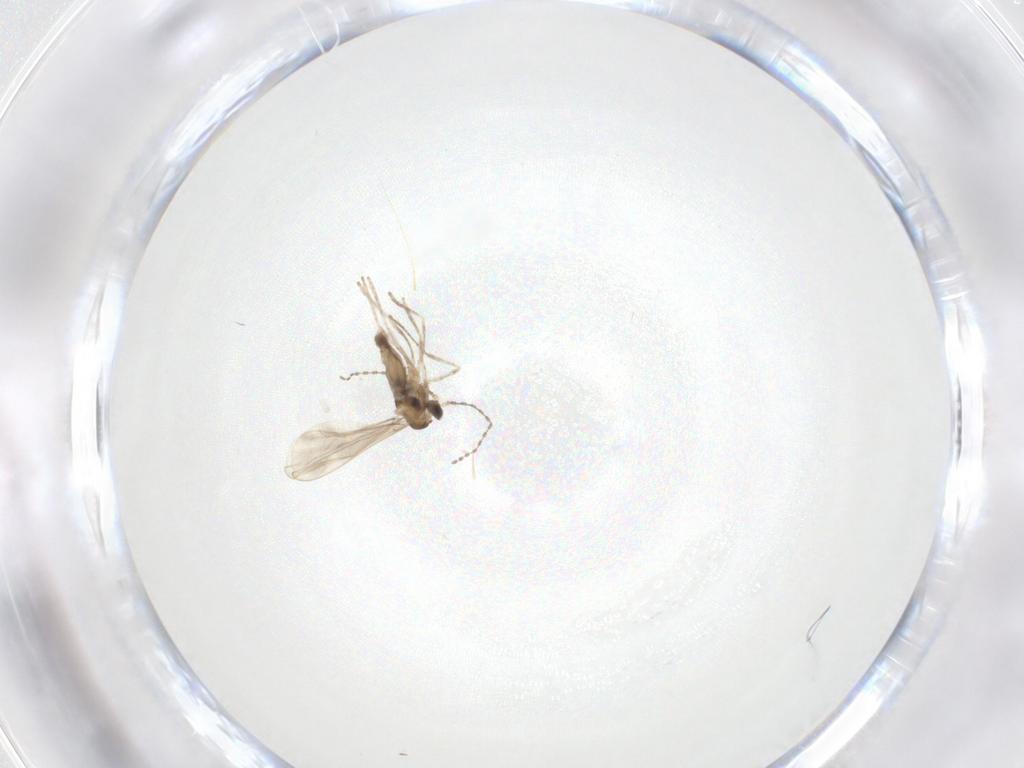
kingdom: Animalia
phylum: Arthropoda
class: Insecta
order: Diptera
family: Cecidomyiidae
